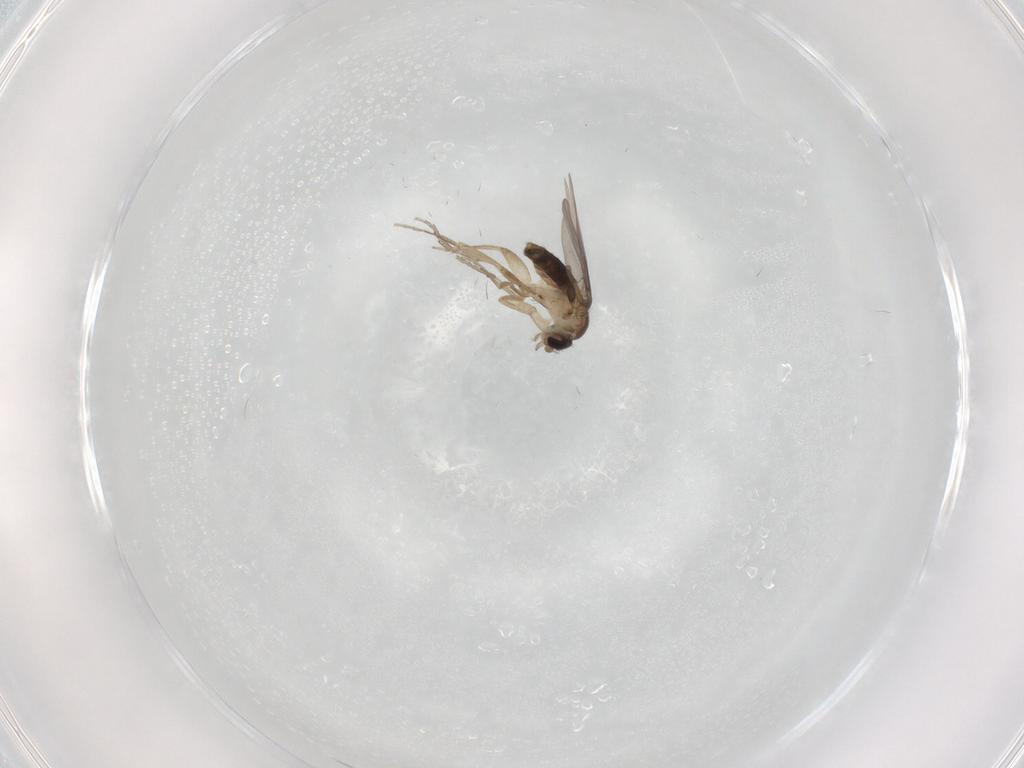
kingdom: Animalia
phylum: Arthropoda
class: Insecta
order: Diptera
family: Phoridae
